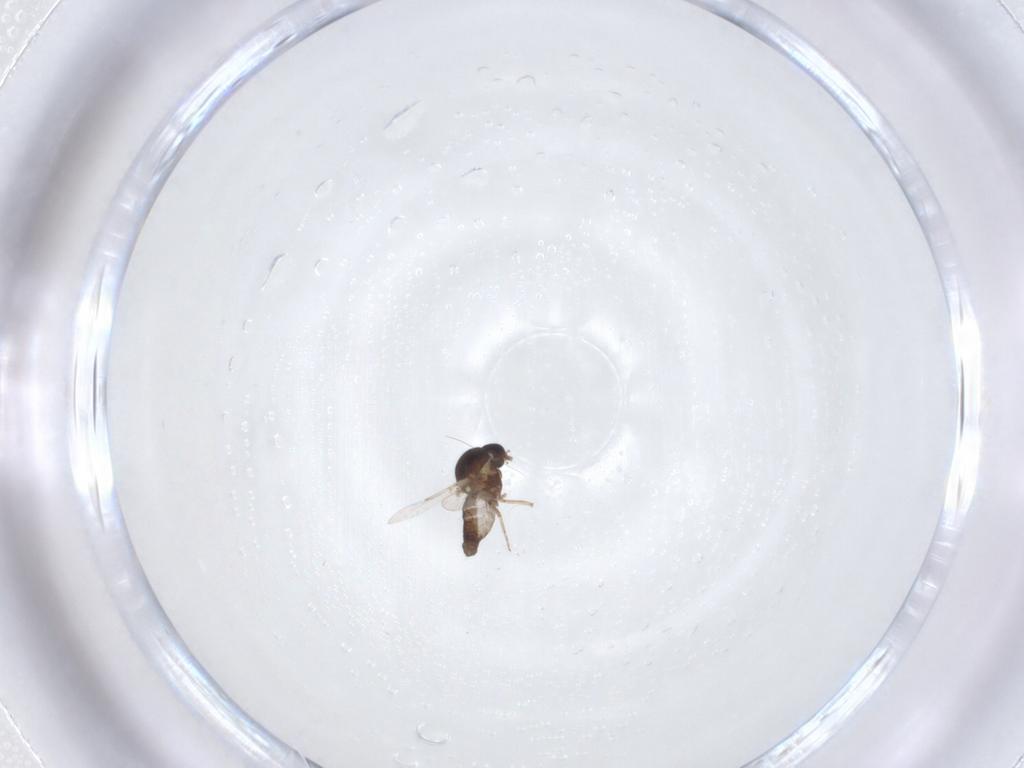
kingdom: Animalia
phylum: Arthropoda
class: Insecta
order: Diptera
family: Ceratopogonidae
